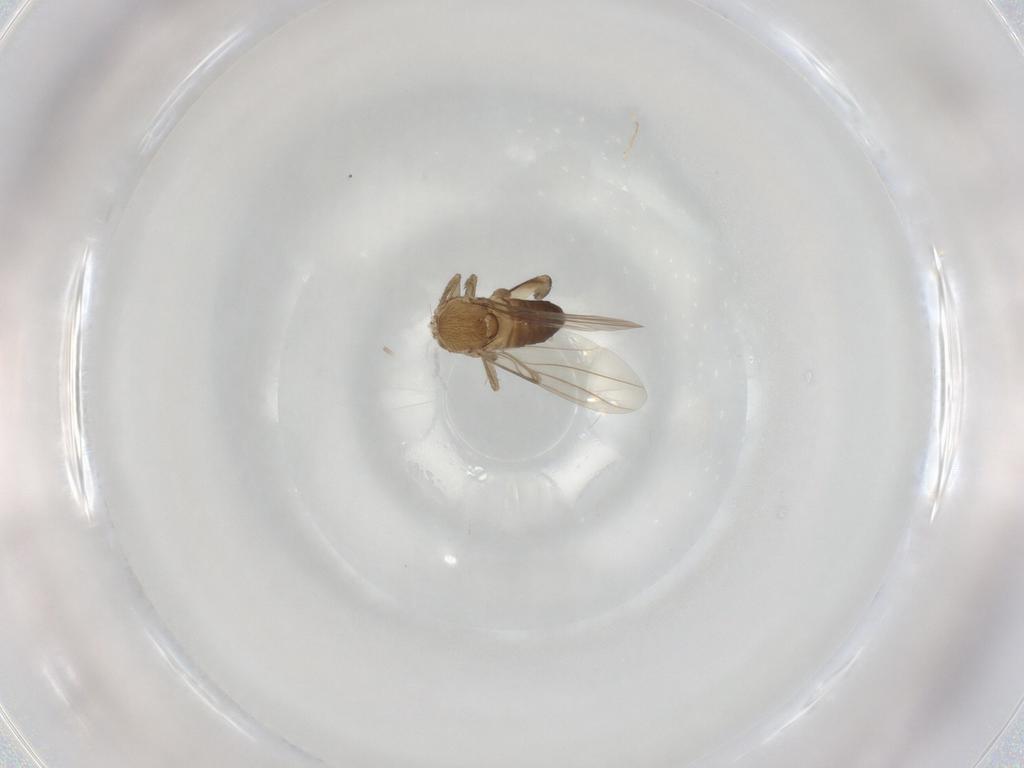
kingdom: Animalia
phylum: Arthropoda
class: Insecta
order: Diptera
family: Phoridae
